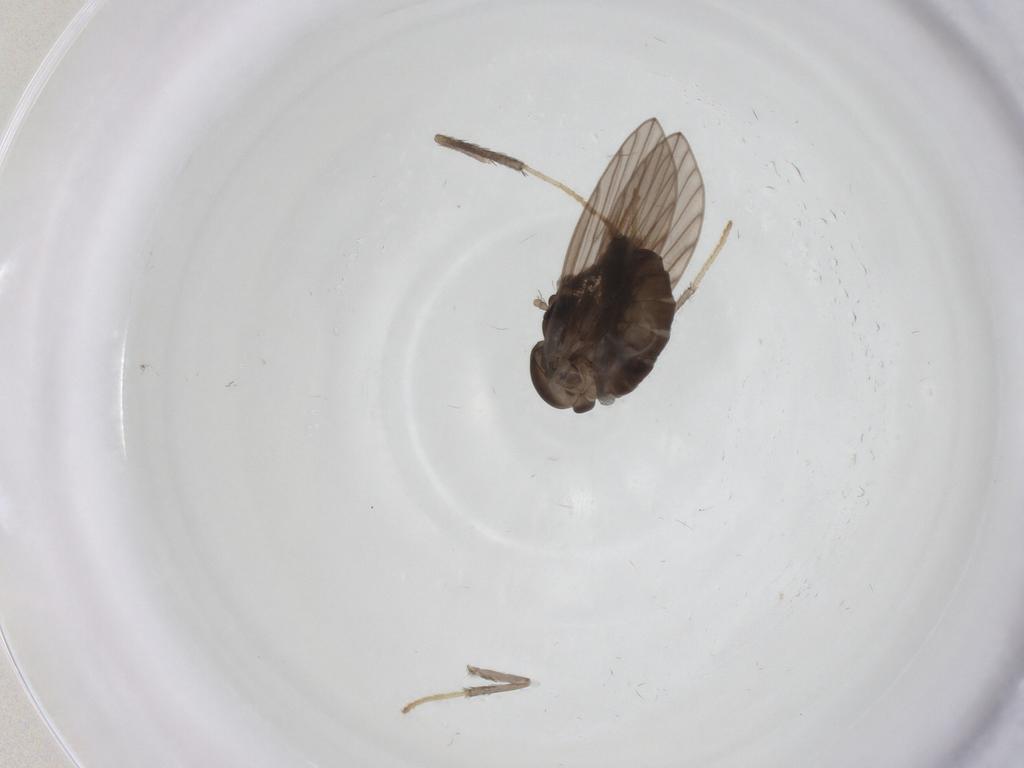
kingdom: Animalia
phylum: Arthropoda
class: Insecta
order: Diptera
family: Psychodidae
